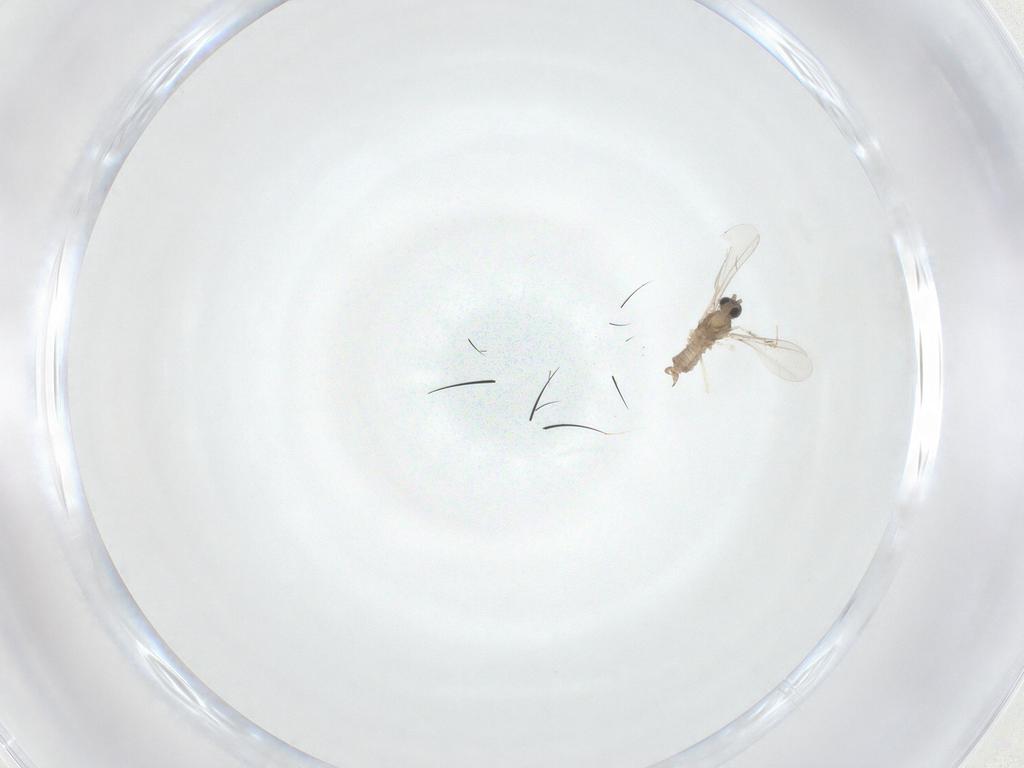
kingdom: Animalia
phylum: Arthropoda
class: Insecta
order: Diptera
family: Cecidomyiidae
